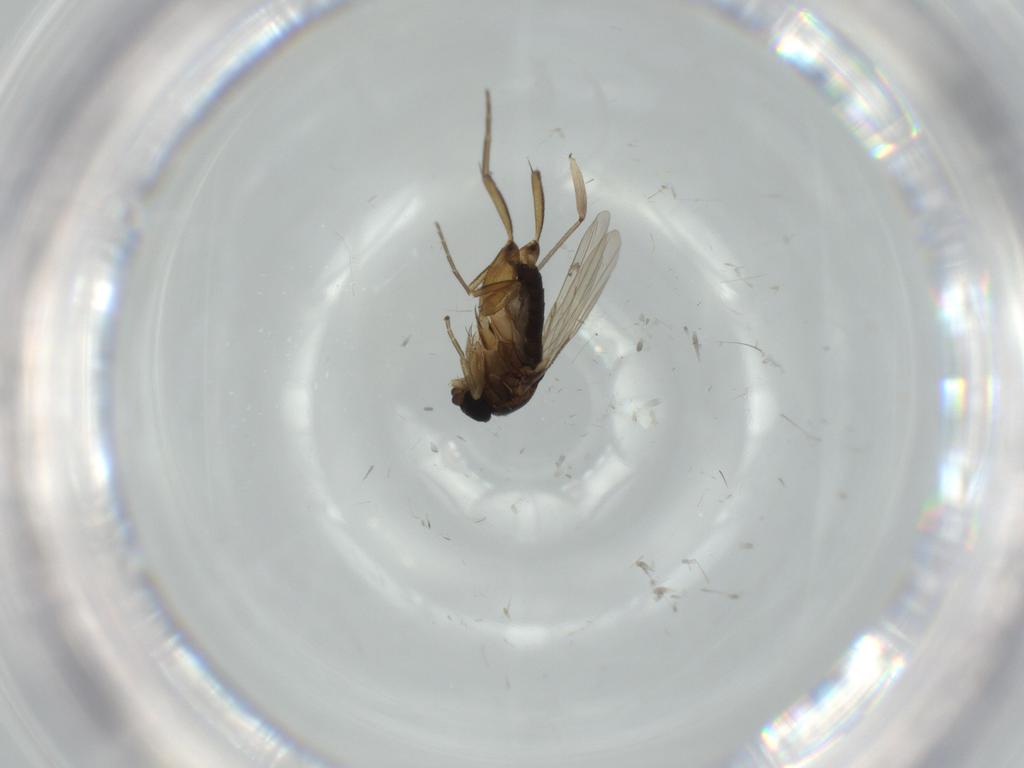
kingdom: Animalia
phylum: Arthropoda
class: Insecta
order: Diptera
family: Sciaridae
